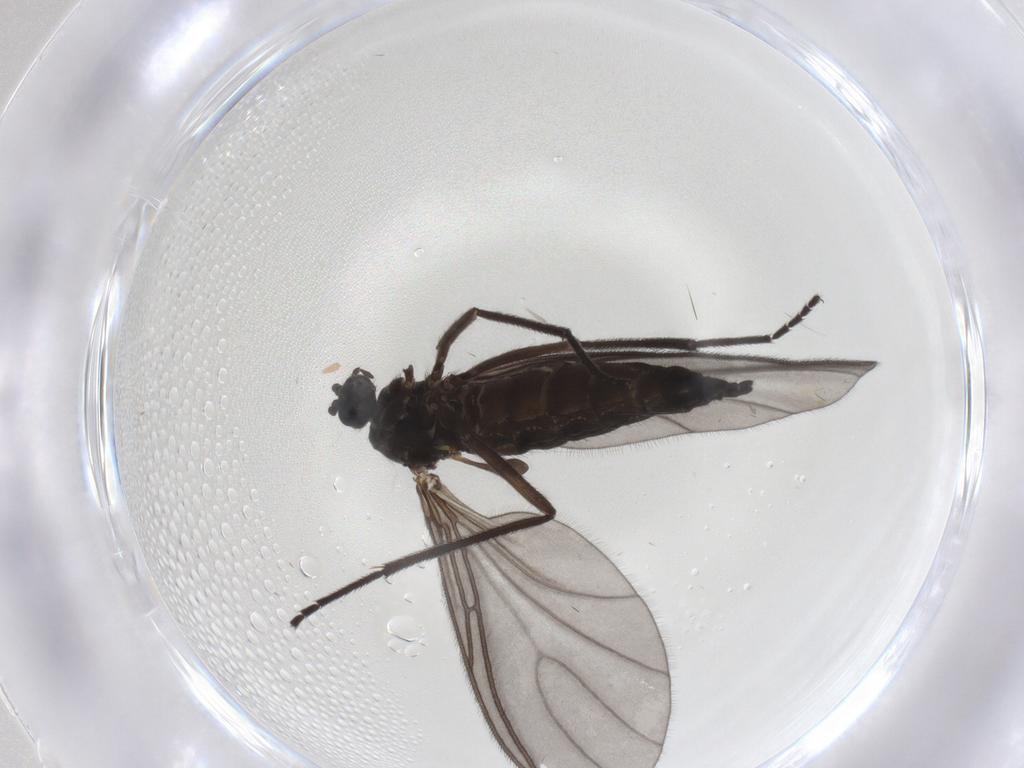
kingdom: Animalia
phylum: Arthropoda
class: Insecta
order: Diptera
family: Sciaridae
